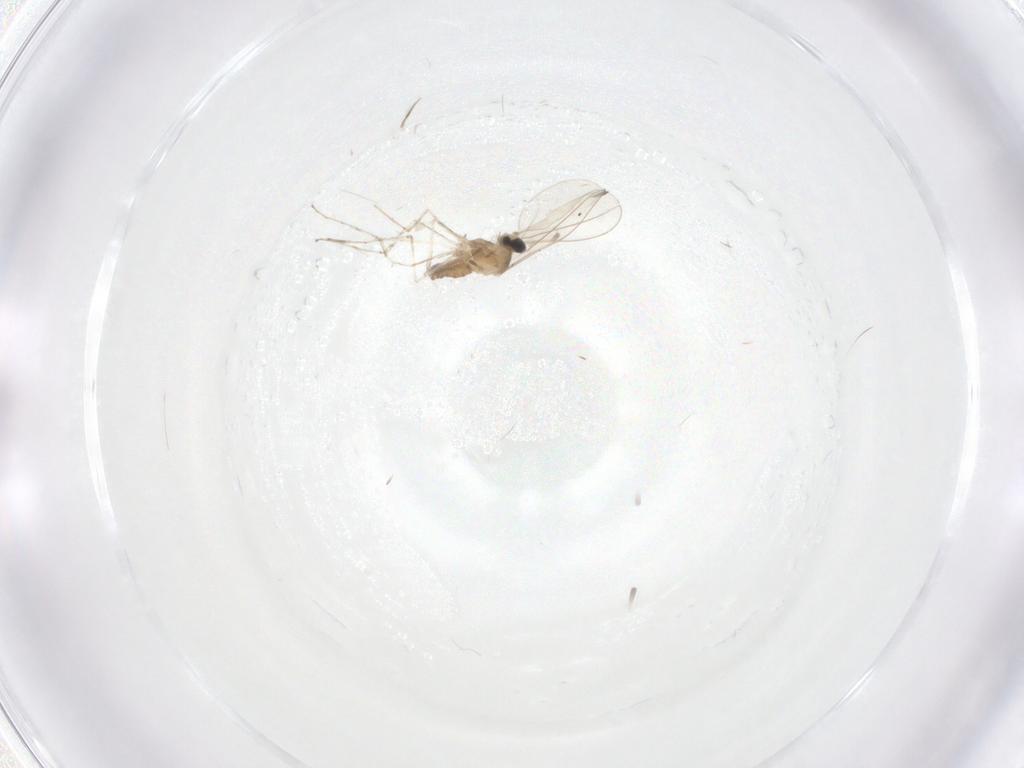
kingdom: Animalia
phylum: Arthropoda
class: Insecta
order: Diptera
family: Cecidomyiidae
